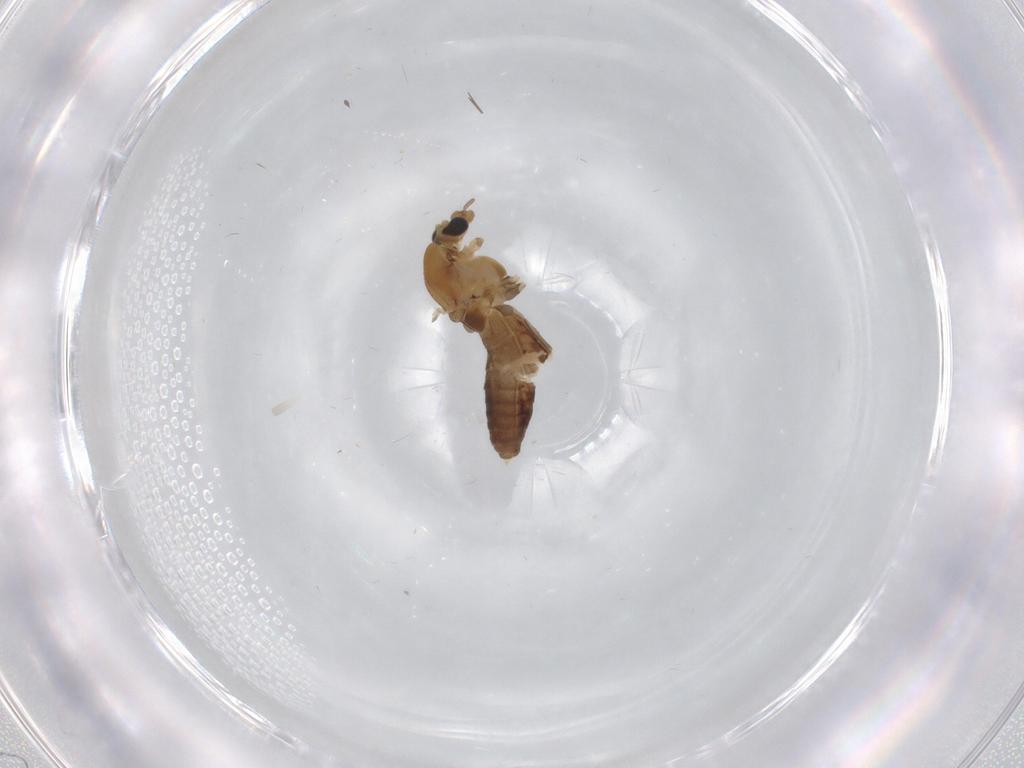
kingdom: Animalia
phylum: Arthropoda
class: Insecta
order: Diptera
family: Chironomidae
